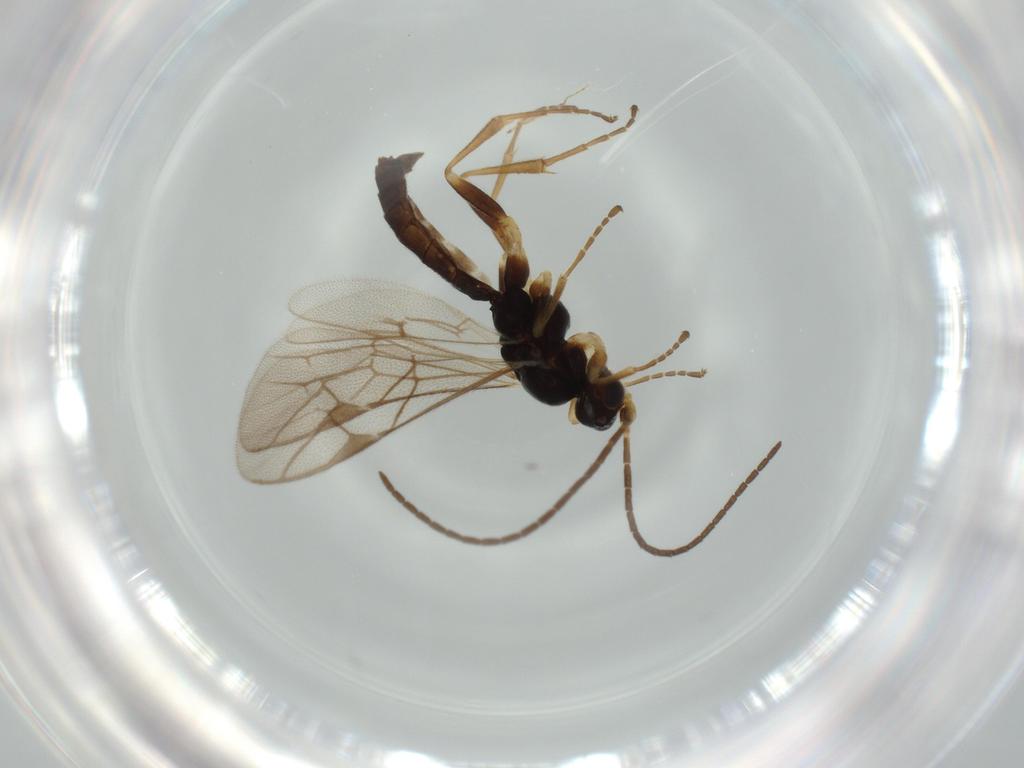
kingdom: Animalia
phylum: Arthropoda
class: Insecta
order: Hymenoptera
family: Ichneumonidae
